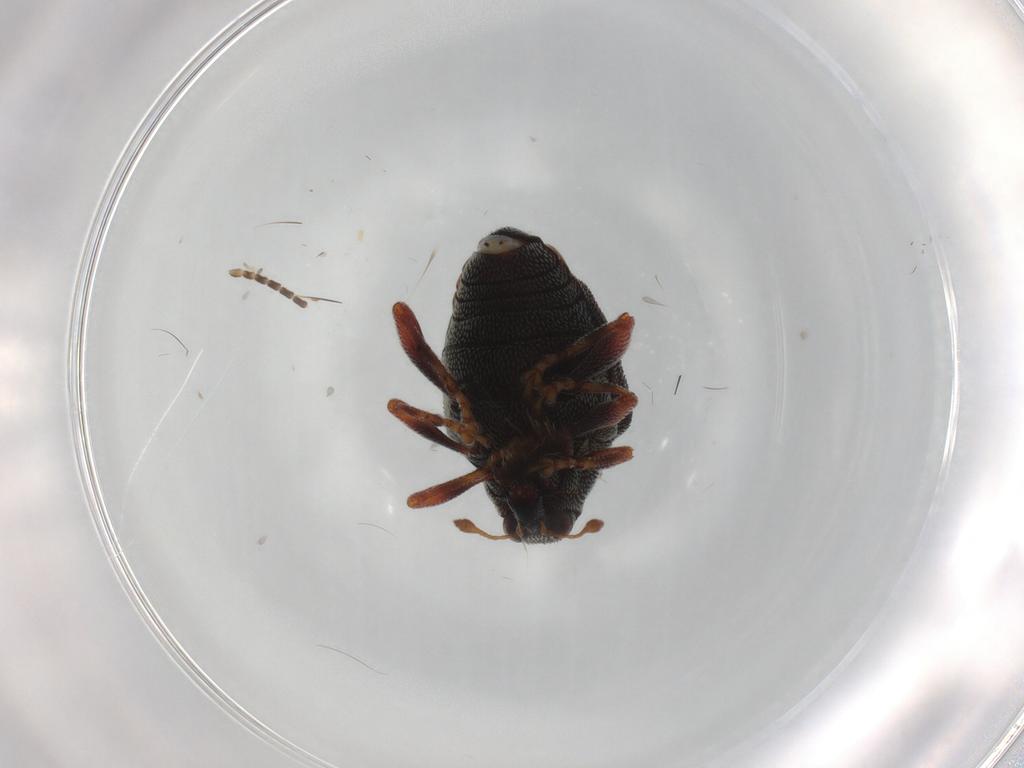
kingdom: Animalia
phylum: Arthropoda
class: Insecta
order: Coleoptera
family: Curculionidae
